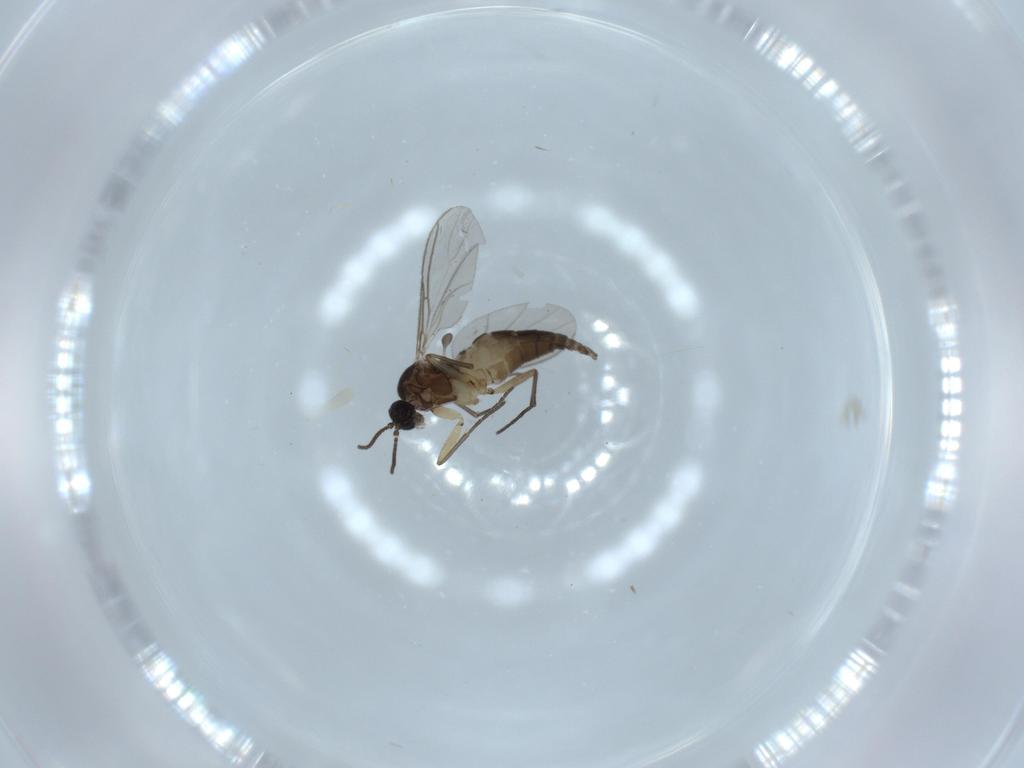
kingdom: Animalia
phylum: Arthropoda
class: Insecta
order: Diptera
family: Sciaridae
